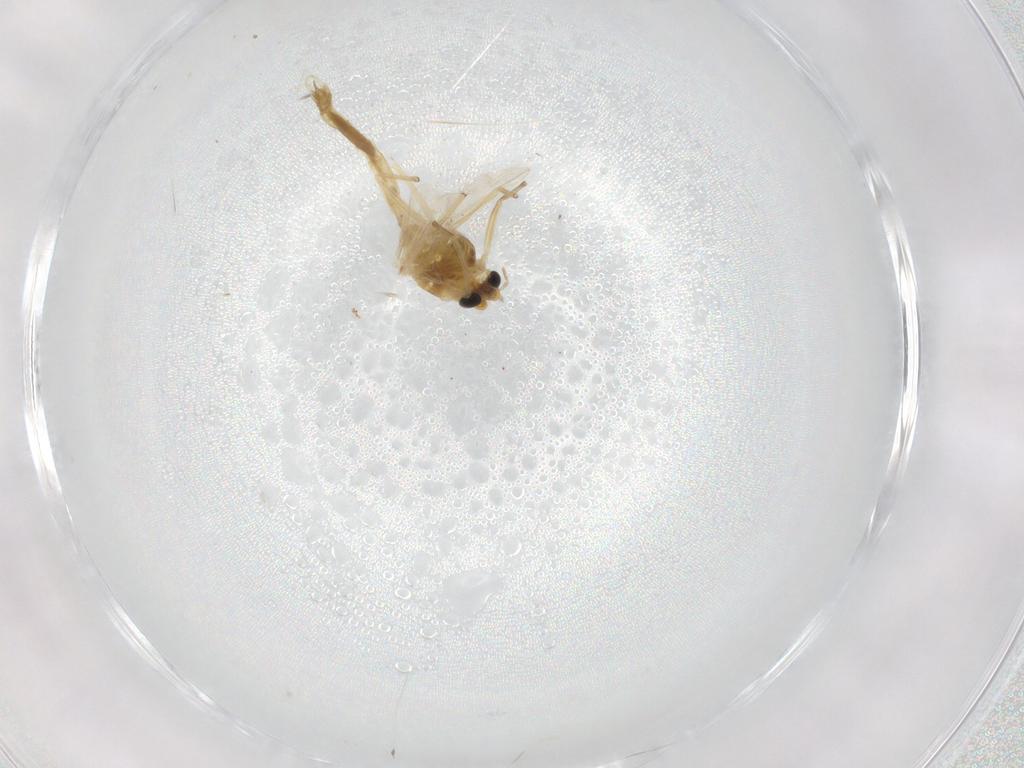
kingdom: Animalia
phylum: Arthropoda
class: Insecta
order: Diptera
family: Chironomidae
